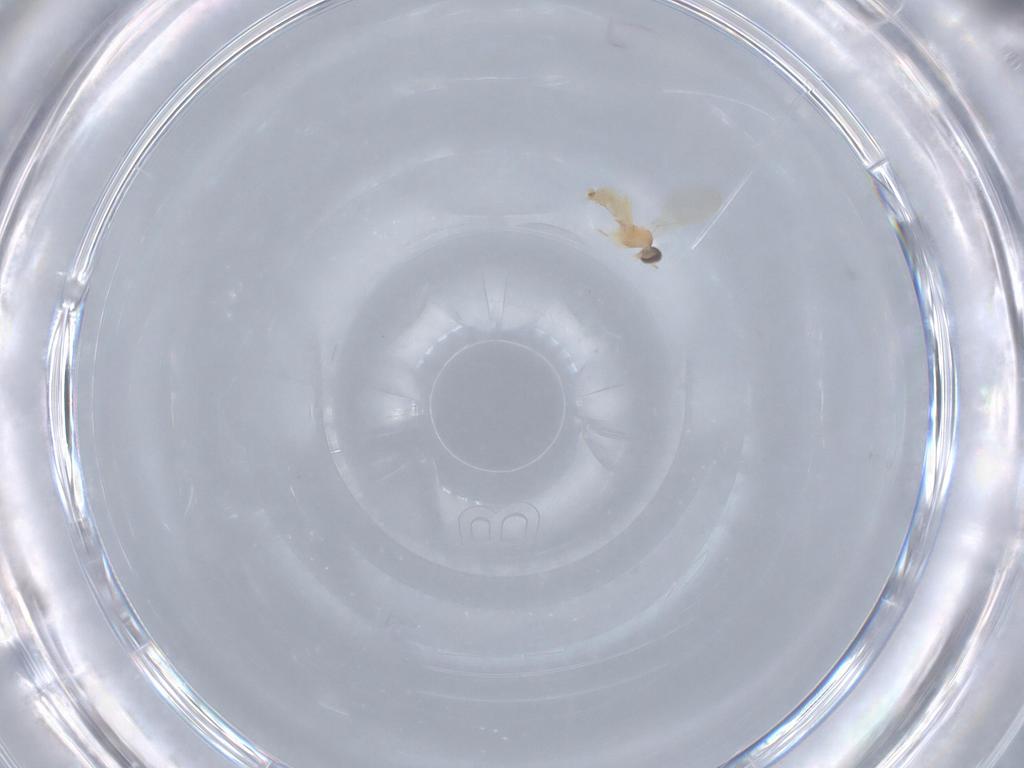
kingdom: Animalia
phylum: Arthropoda
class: Insecta
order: Diptera
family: Cecidomyiidae
